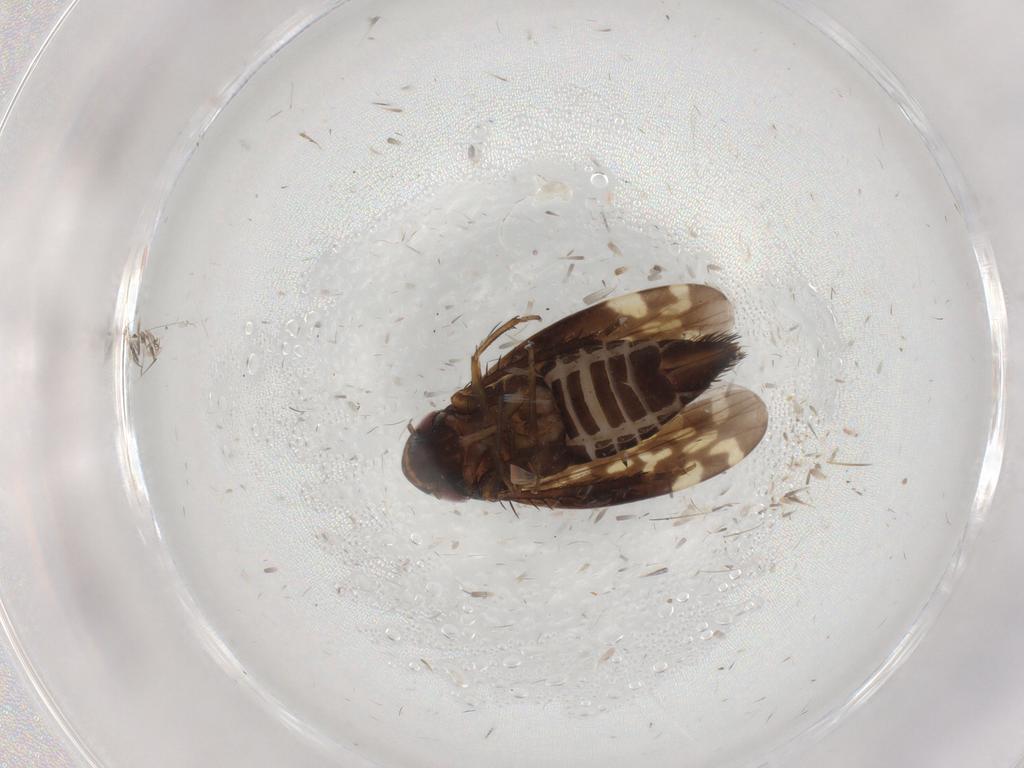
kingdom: Animalia
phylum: Arthropoda
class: Insecta
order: Hemiptera
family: Cicadellidae
